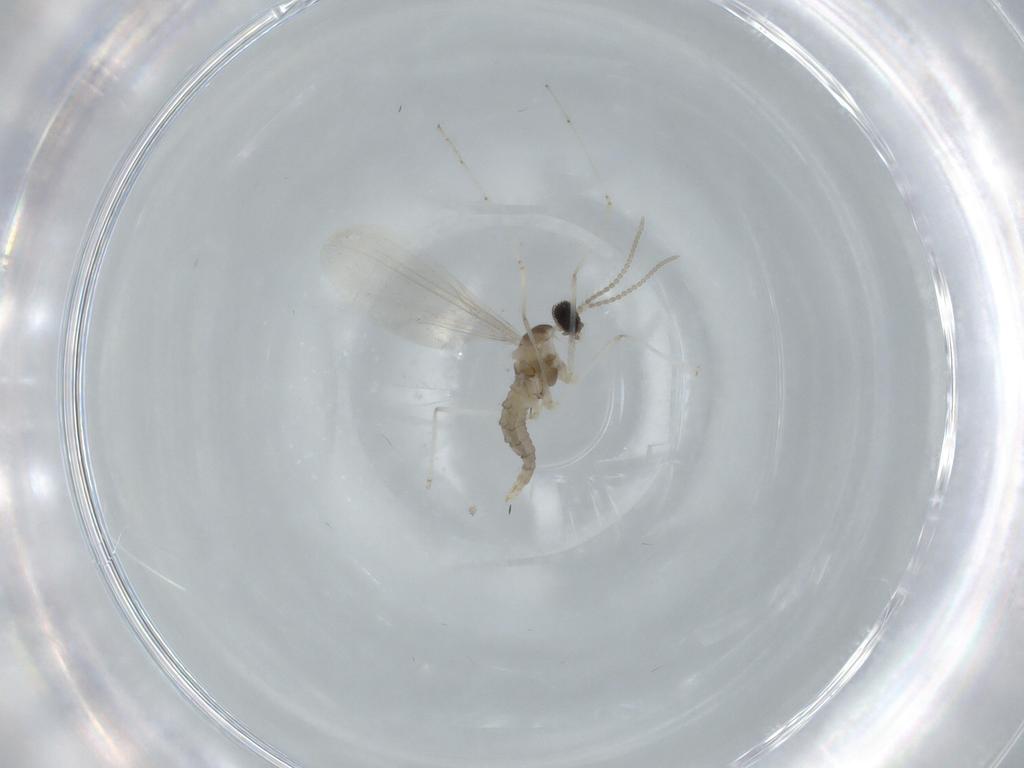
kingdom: Animalia
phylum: Arthropoda
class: Insecta
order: Diptera
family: Cecidomyiidae
